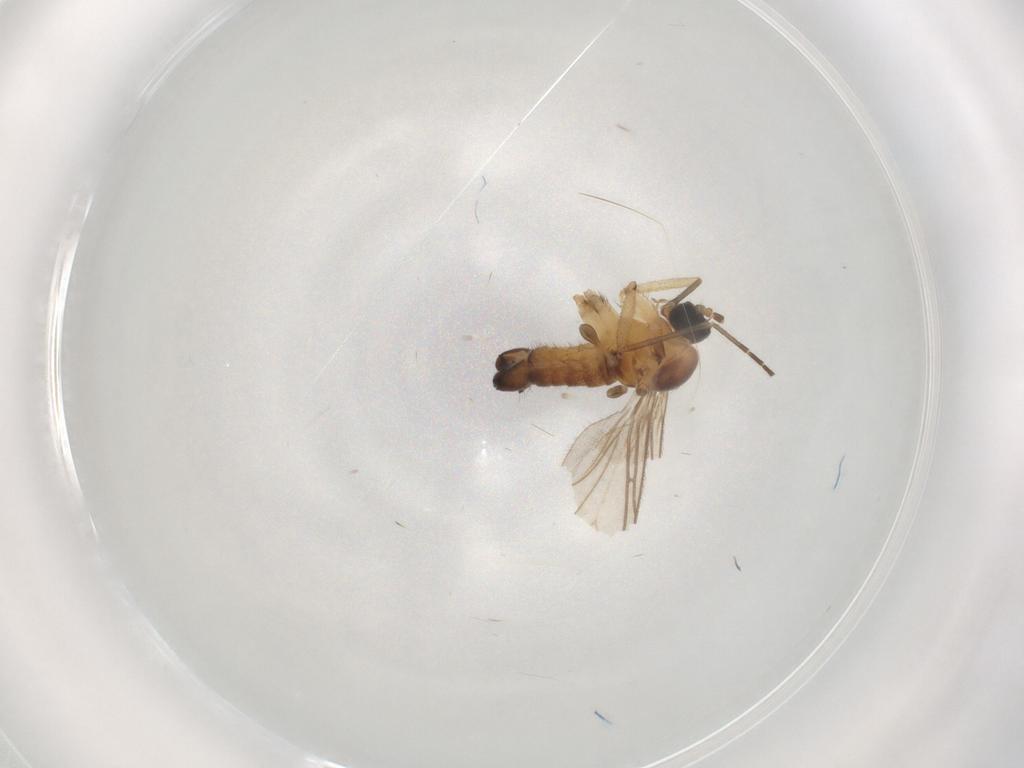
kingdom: Animalia
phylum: Arthropoda
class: Insecta
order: Diptera
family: Sciaridae
